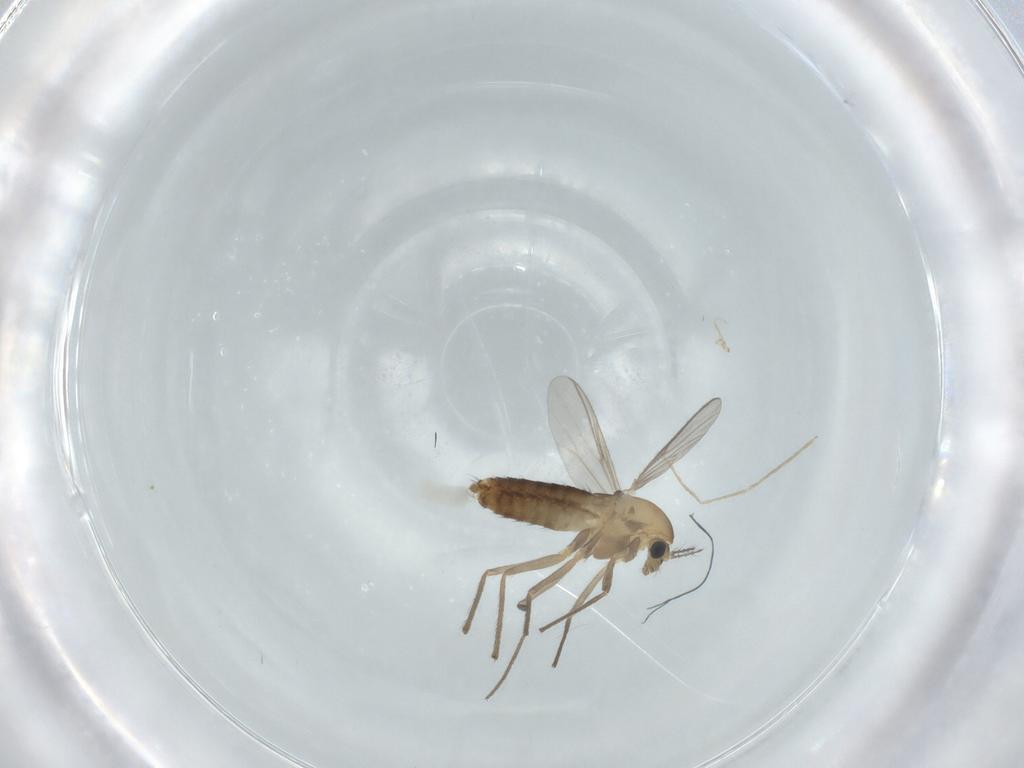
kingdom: Animalia
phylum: Arthropoda
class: Insecta
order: Diptera
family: Chironomidae
